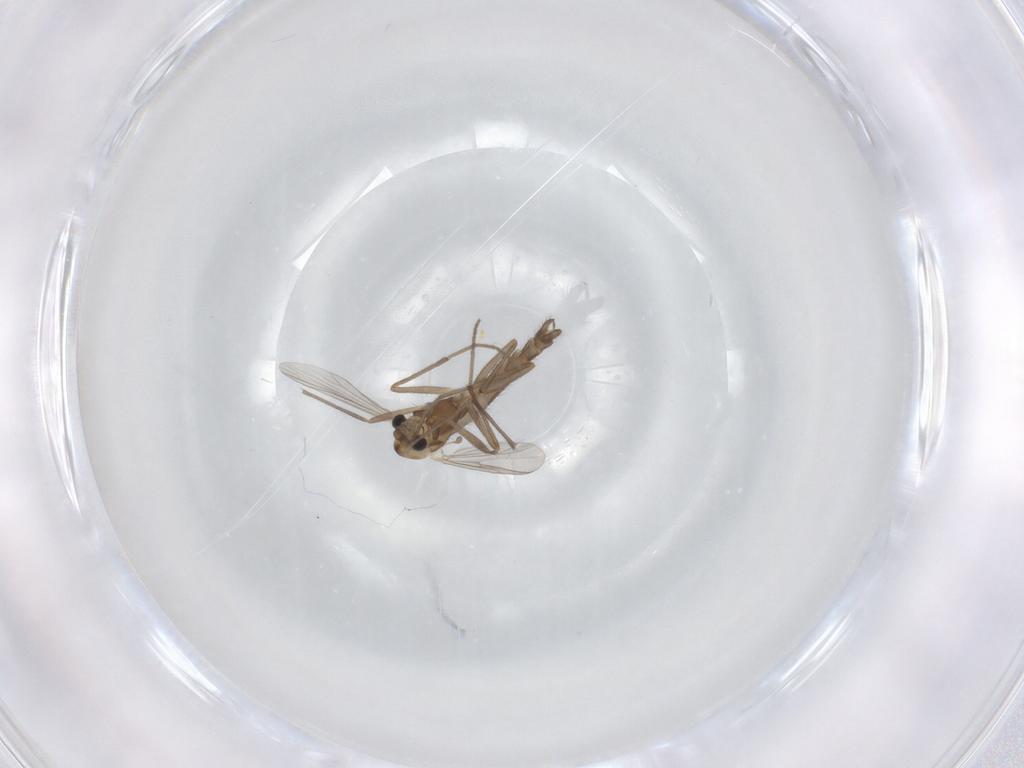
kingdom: Animalia
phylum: Arthropoda
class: Insecta
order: Diptera
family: Chironomidae
